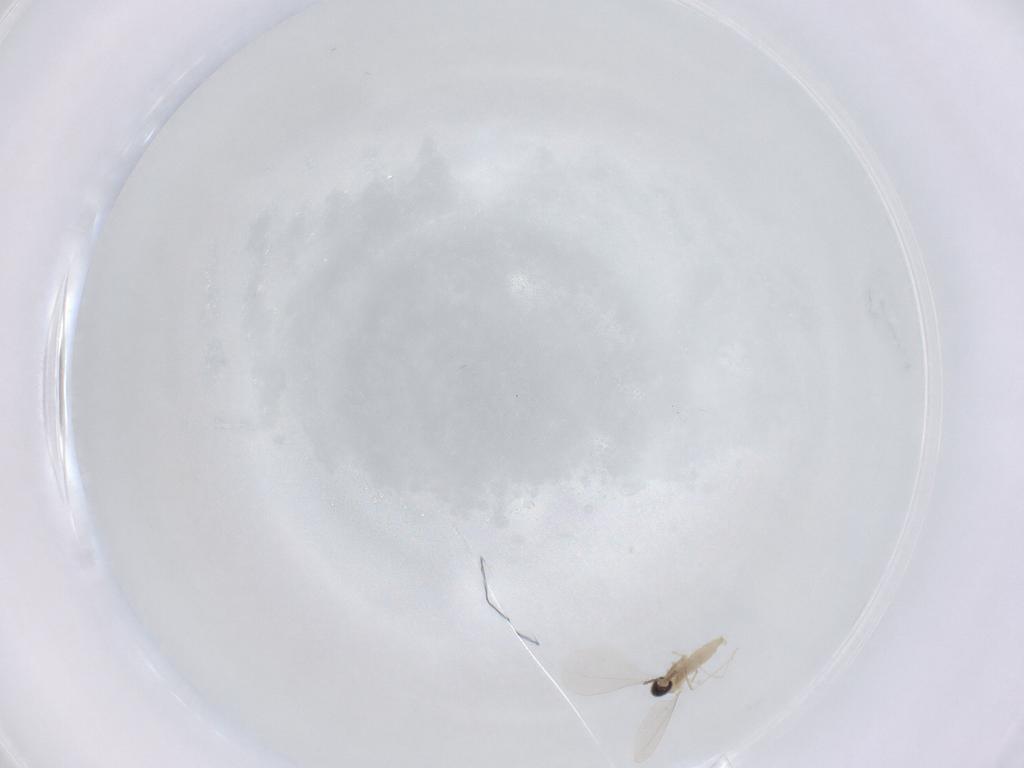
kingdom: Animalia
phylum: Arthropoda
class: Insecta
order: Diptera
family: Cecidomyiidae
